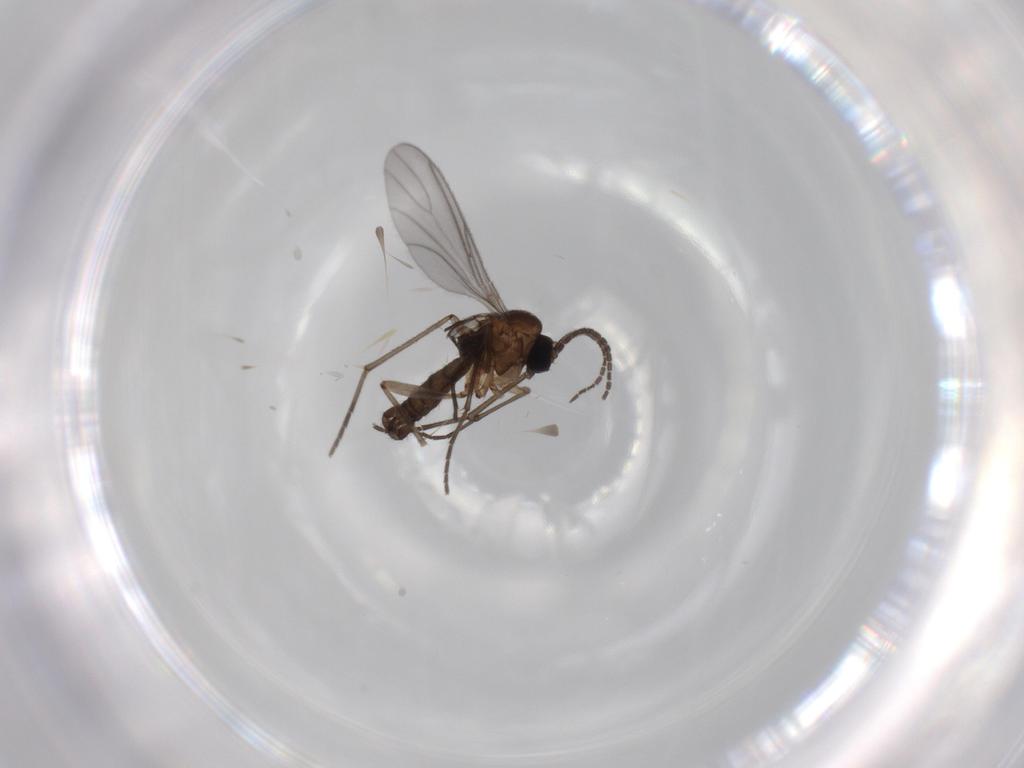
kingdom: Animalia
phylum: Arthropoda
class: Insecta
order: Diptera
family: Sciaridae
